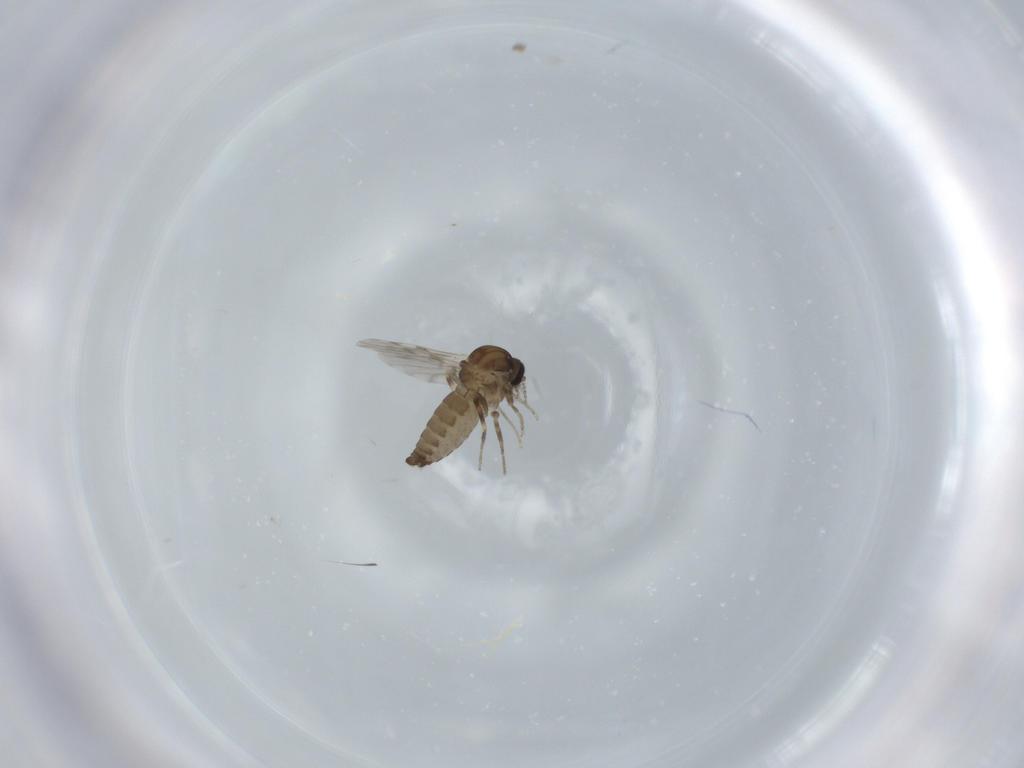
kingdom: Animalia
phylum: Arthropoda
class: Insecta
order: Diptera
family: Ceratopogonidae
